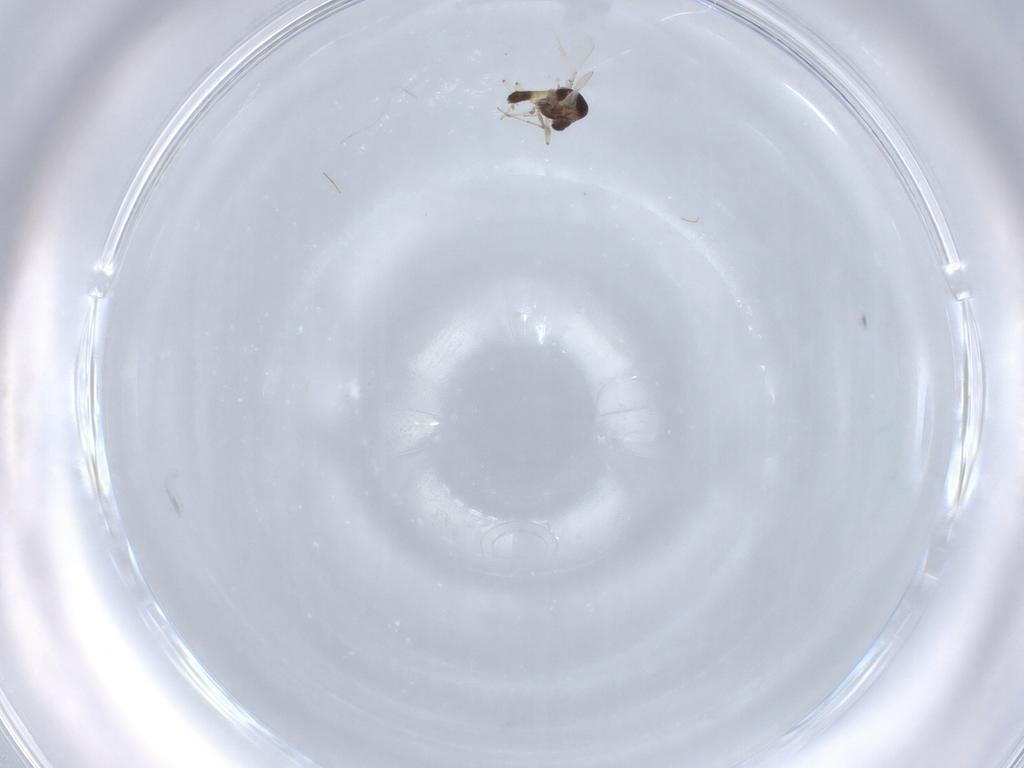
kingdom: Animalia
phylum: Arthropoda
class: Insecta
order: Diptera
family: Chironomidae
